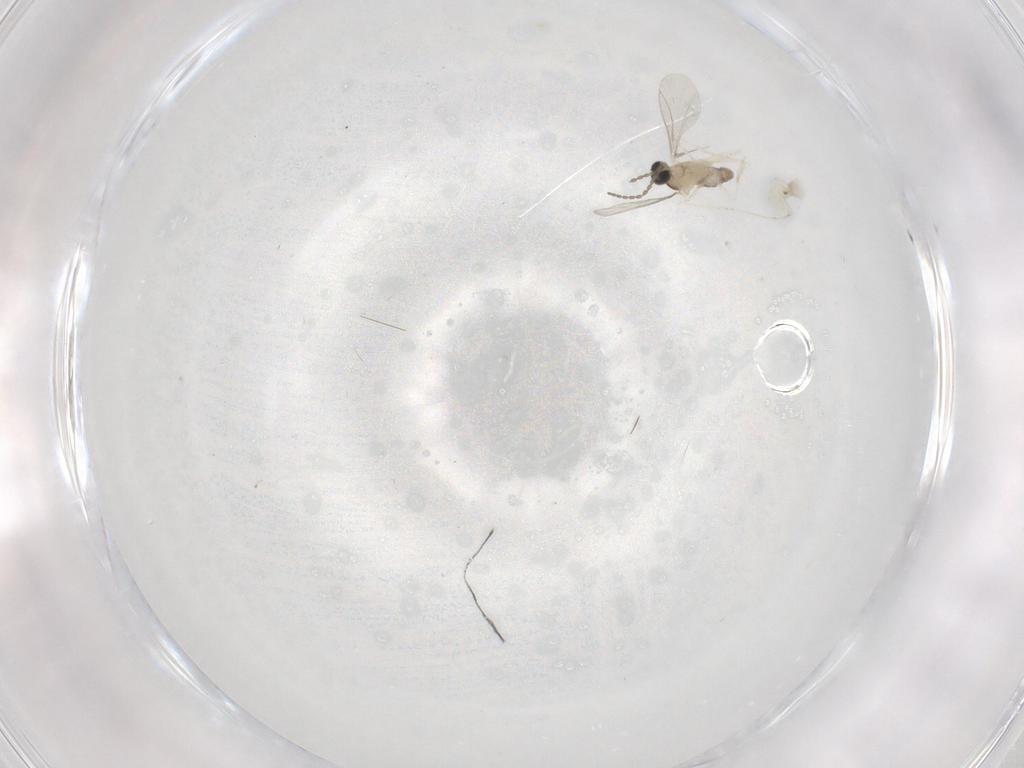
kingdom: Animalia
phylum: Arthropoda
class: Insecta
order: Diptera
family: Cecidomyiidae
